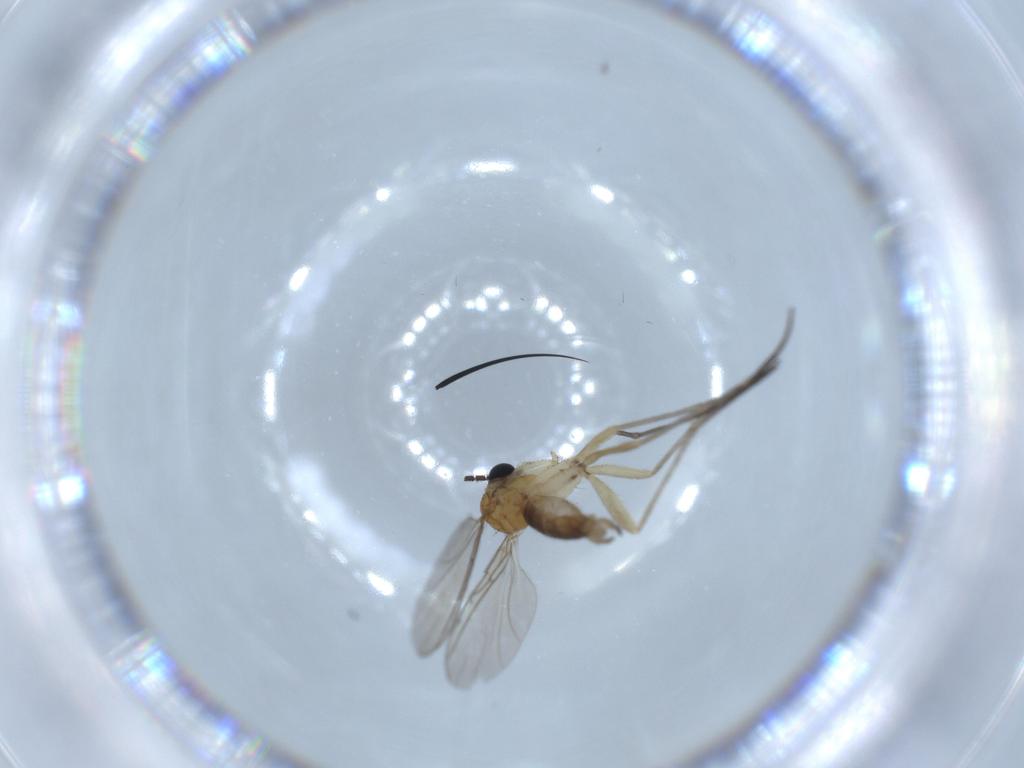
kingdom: Animalia
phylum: Arthropoda
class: Insecta
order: Diptera
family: Sciaridae
